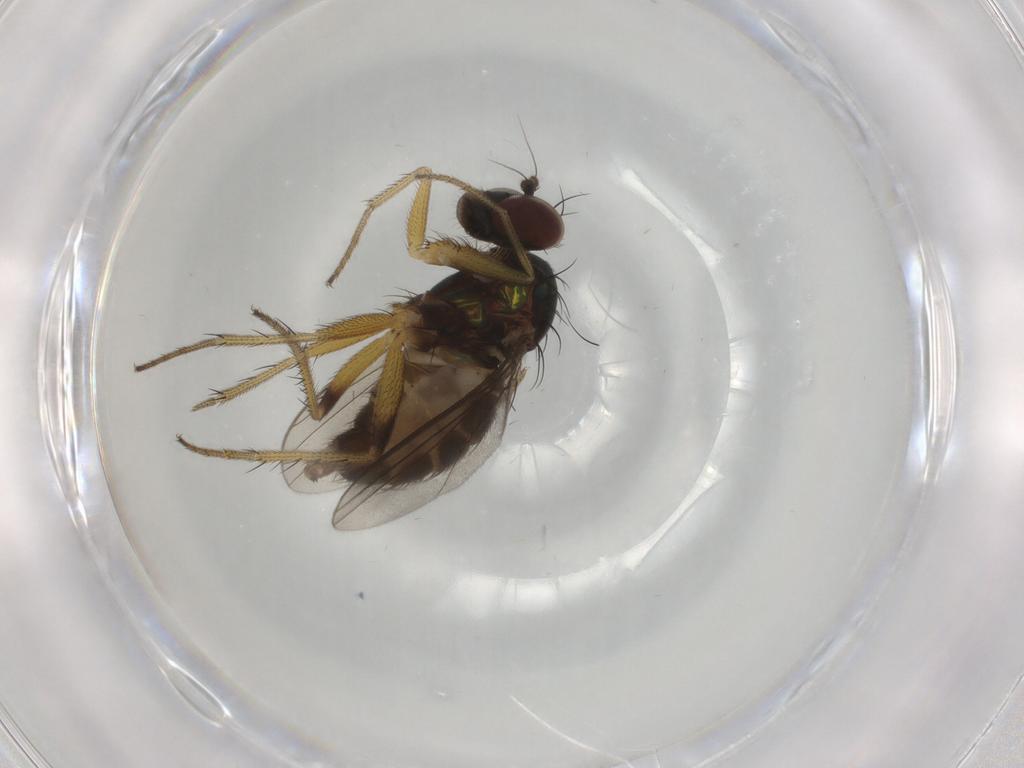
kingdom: Animalia
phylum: Arthropoda
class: Insecta
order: Diptera
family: Dolichopodidae
